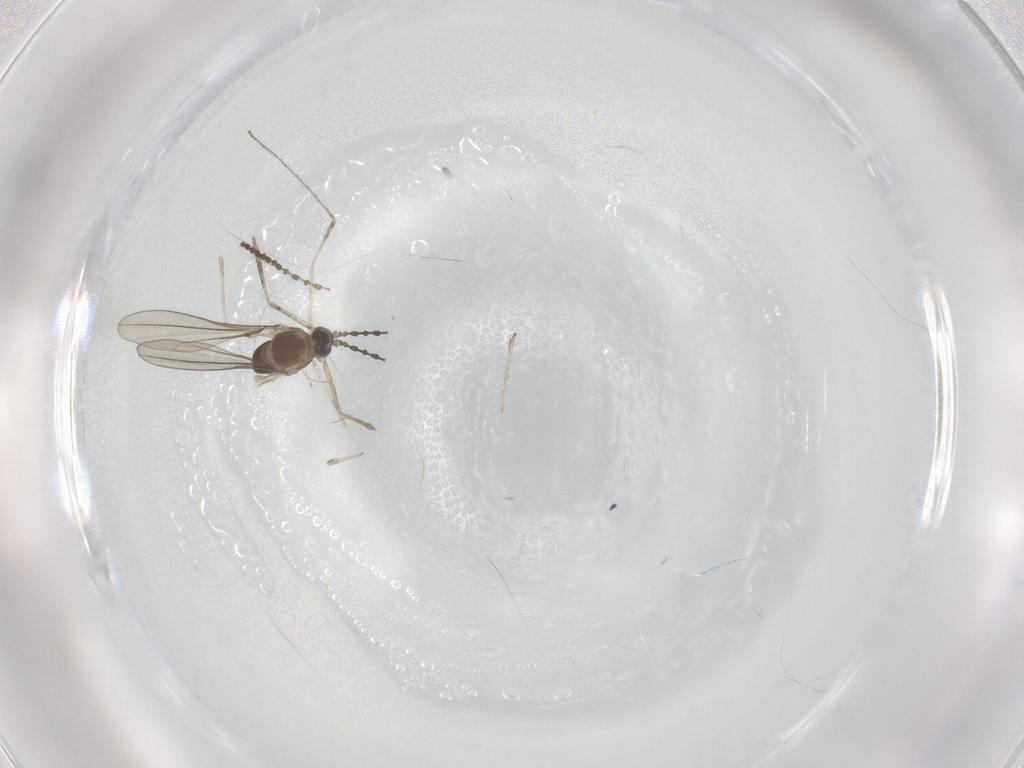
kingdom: Animalia
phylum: Arthropoda
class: Insecta
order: Diptera
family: Cecidomyiidae
